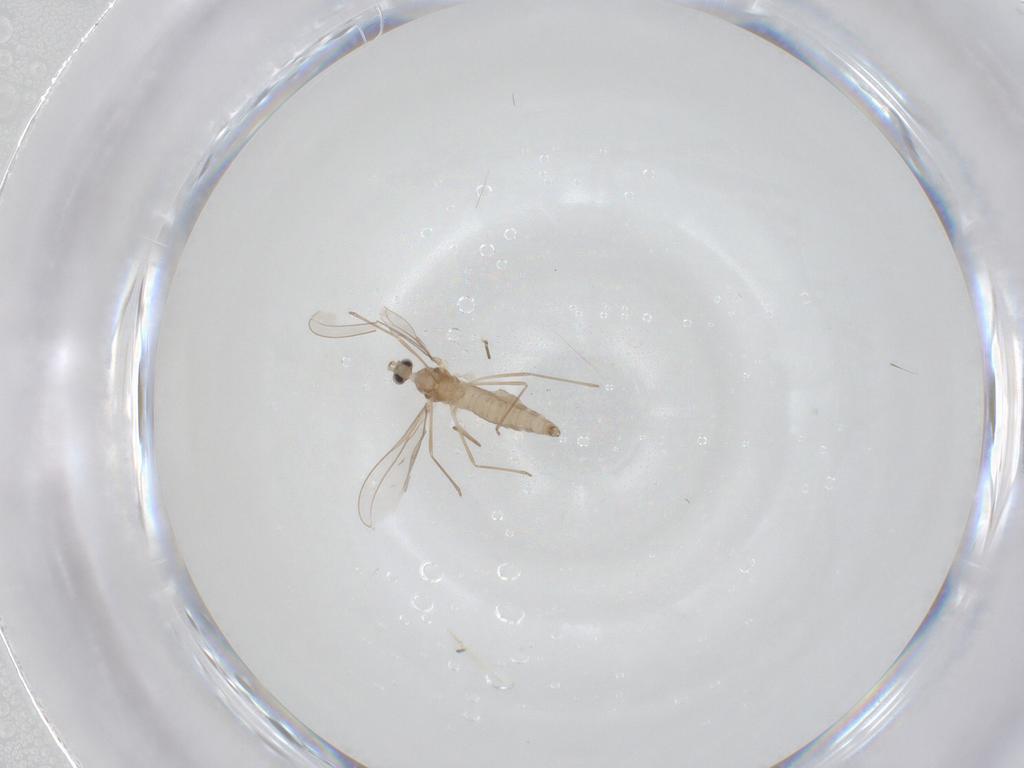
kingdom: Animalia
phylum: Arthropoda
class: Insecta
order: Diptera
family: Cecidomyiidae
